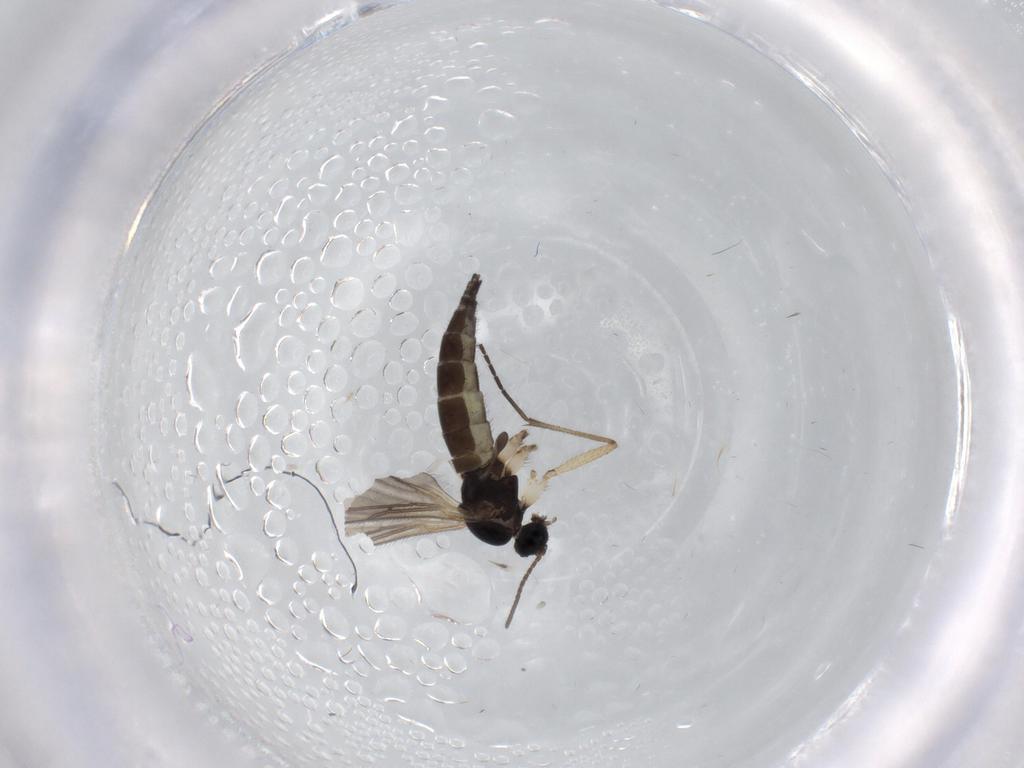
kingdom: Animalia
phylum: Arthropoda
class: Insecta
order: Diptera
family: Sciaridae
